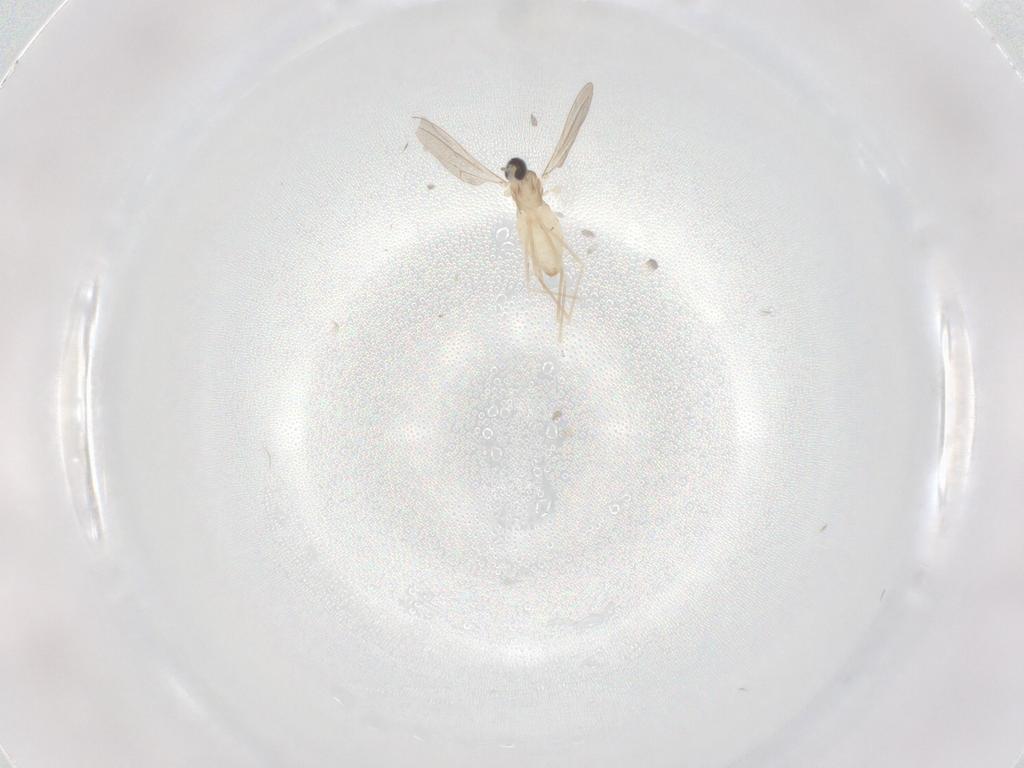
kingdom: Animalia
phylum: Arthropoda
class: Insecta
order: Diptera
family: Cecidomyiidae
